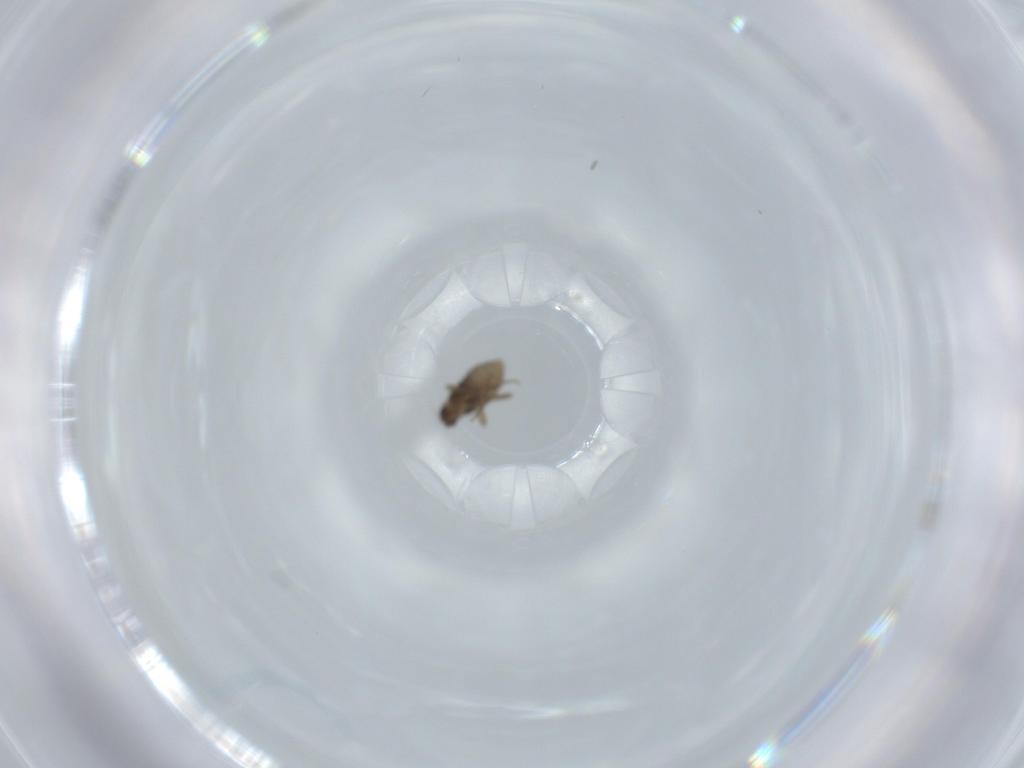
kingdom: Animalia
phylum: Arthropoda
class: Insecta
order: Diptera
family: Phoridae
